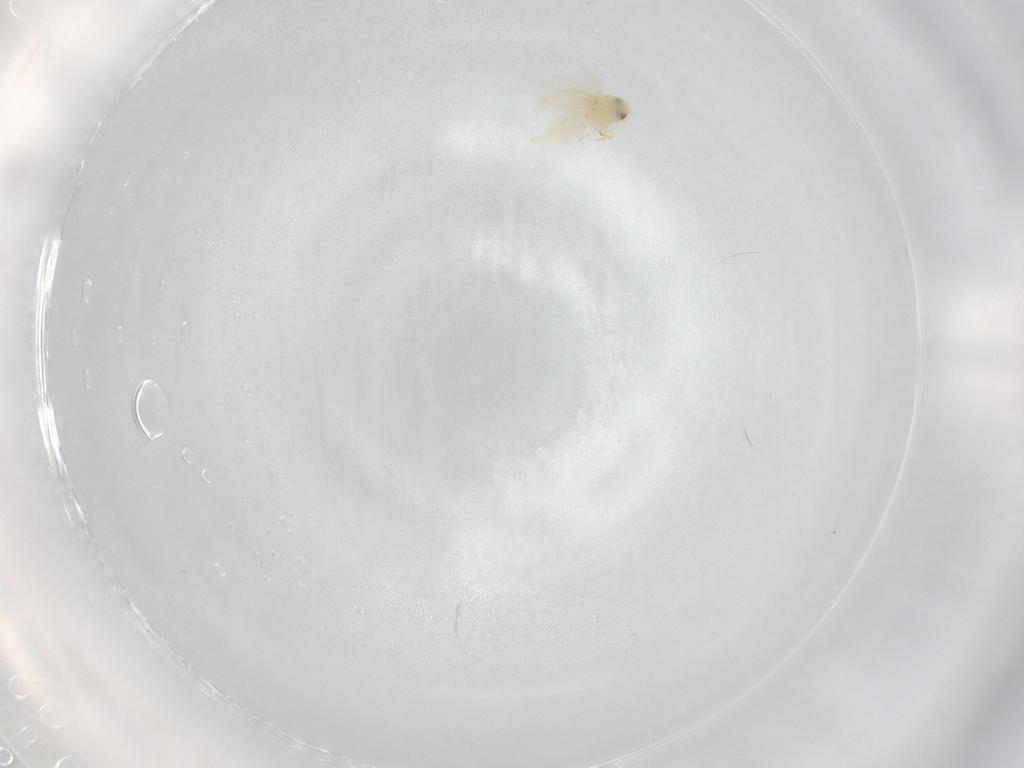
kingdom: Animalia
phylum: Arthropoda
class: Insecta
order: Hemiptera
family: Aleyrodidae
